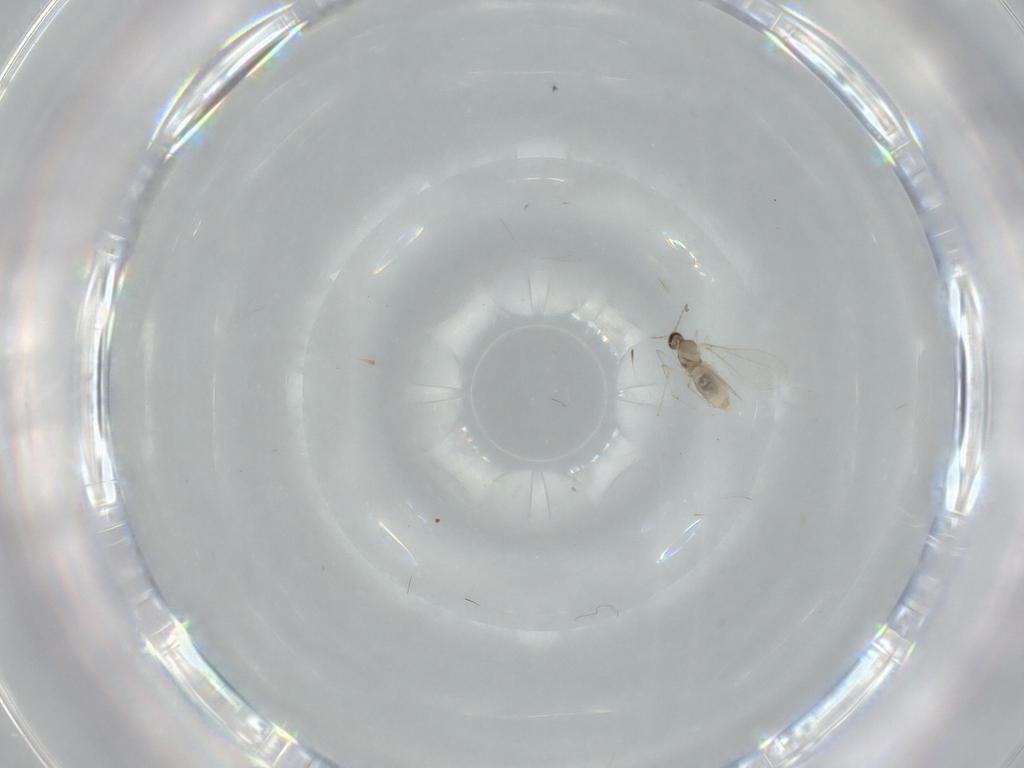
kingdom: Animalia
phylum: Arthropoda
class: Insecta
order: Diptera
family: Cecidomyiidae
